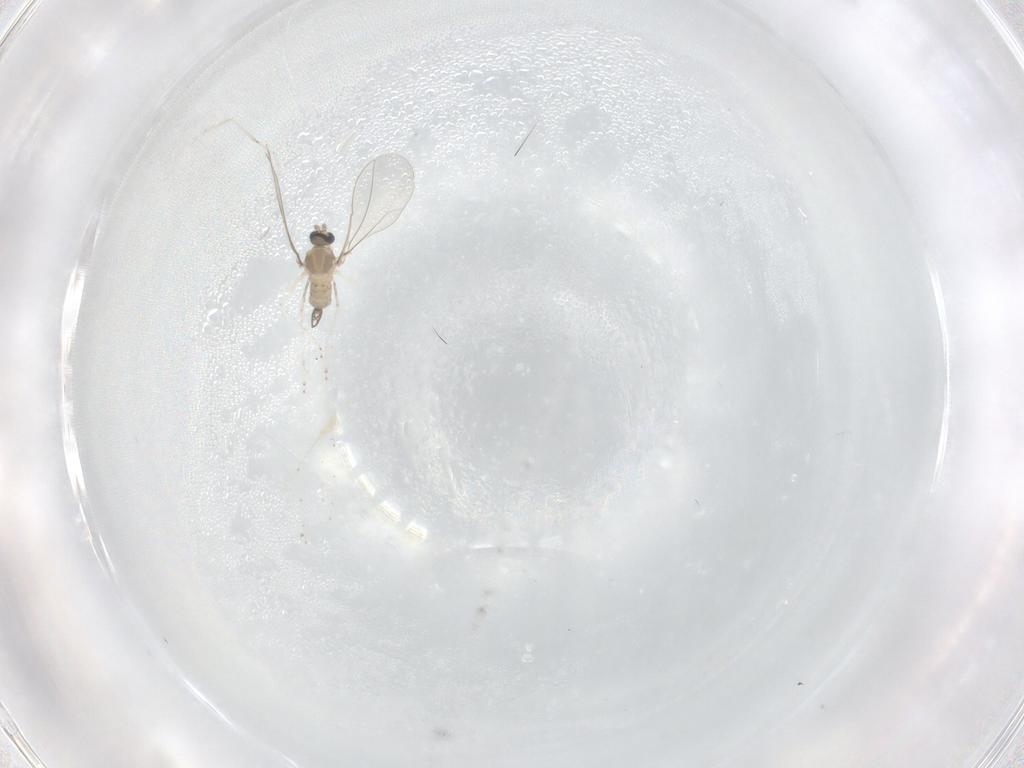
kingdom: Animalia
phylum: Arthropoda
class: Insecta
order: Diptera
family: Cecidomyiidae
